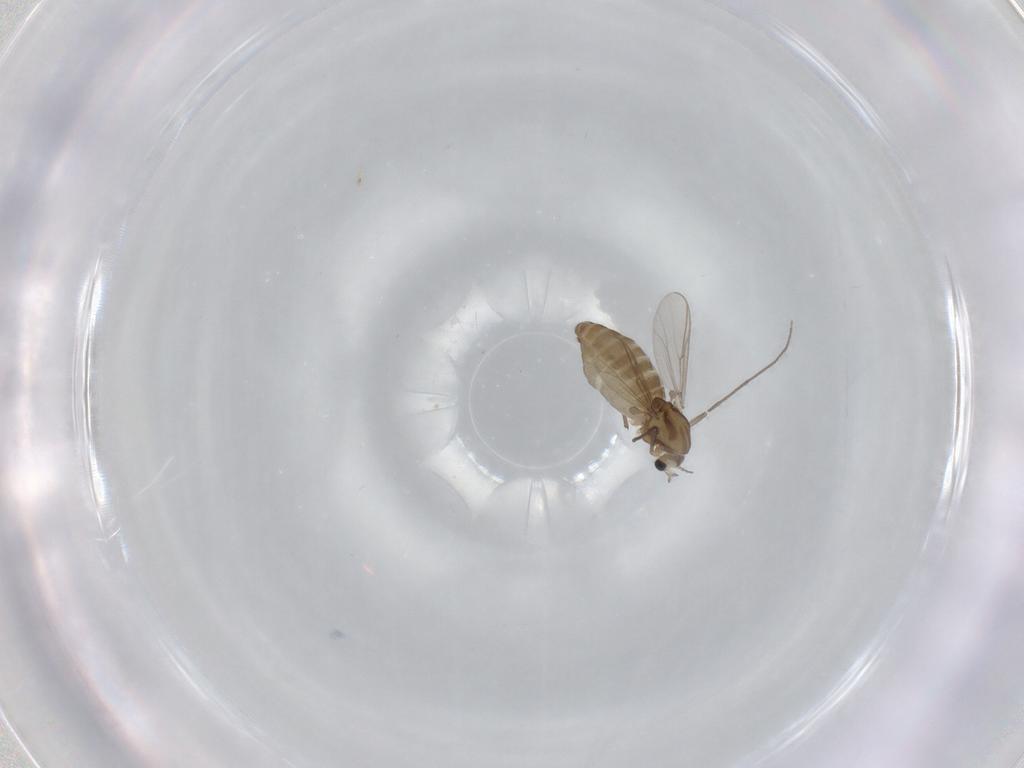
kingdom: Animalia
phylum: Arthropoda
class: Insecta
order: Diptera
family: Chironomidae
